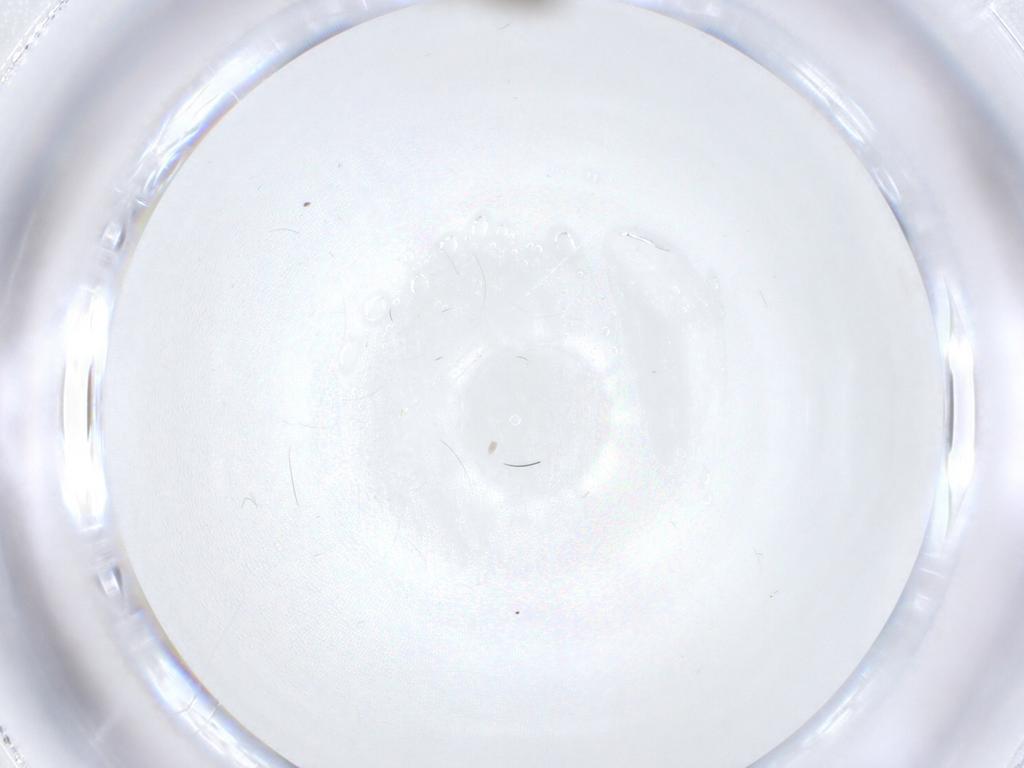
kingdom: Animalia
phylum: Arthropoda
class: Insecta
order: Diptera
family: Psychodidae
